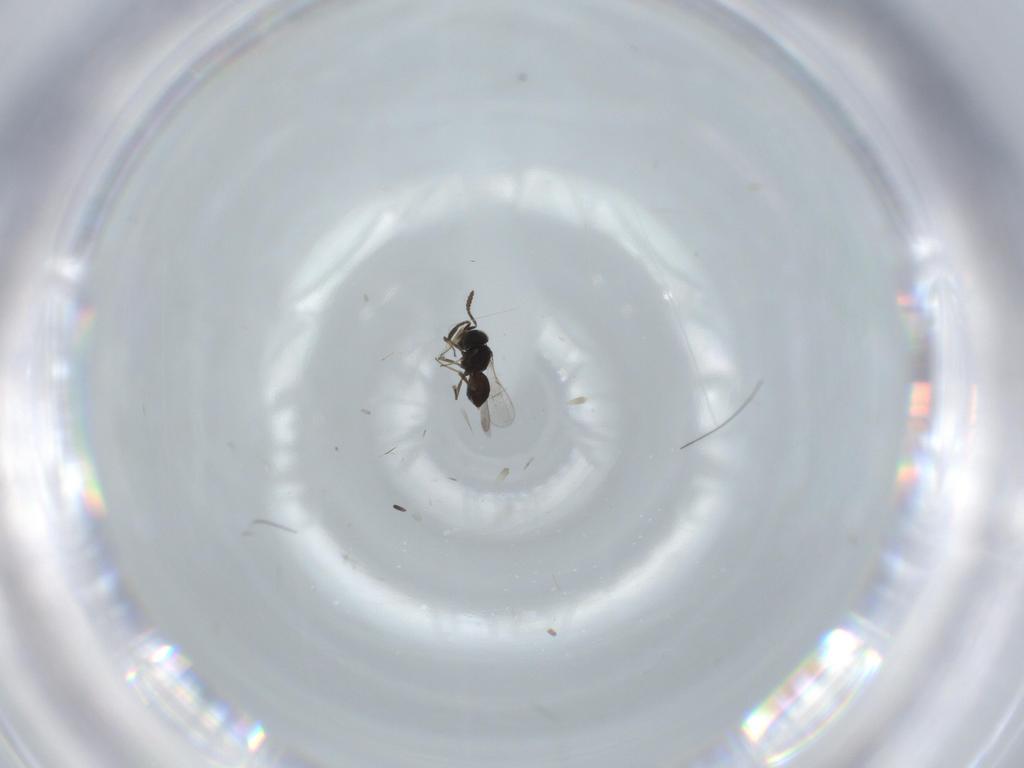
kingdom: Animalia
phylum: Arthropoda
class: Insecta
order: Hymenoptera
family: Scelionidae
